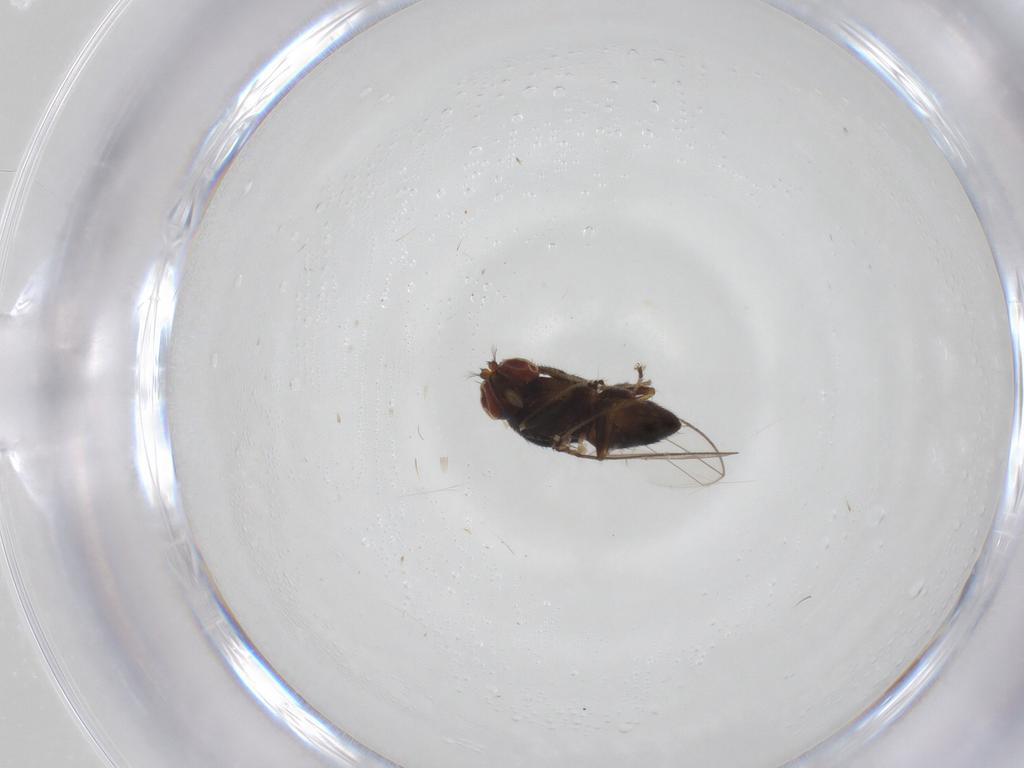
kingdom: Animalia
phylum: Arthropoda
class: Insecta
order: Diptera
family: Ephydridae
